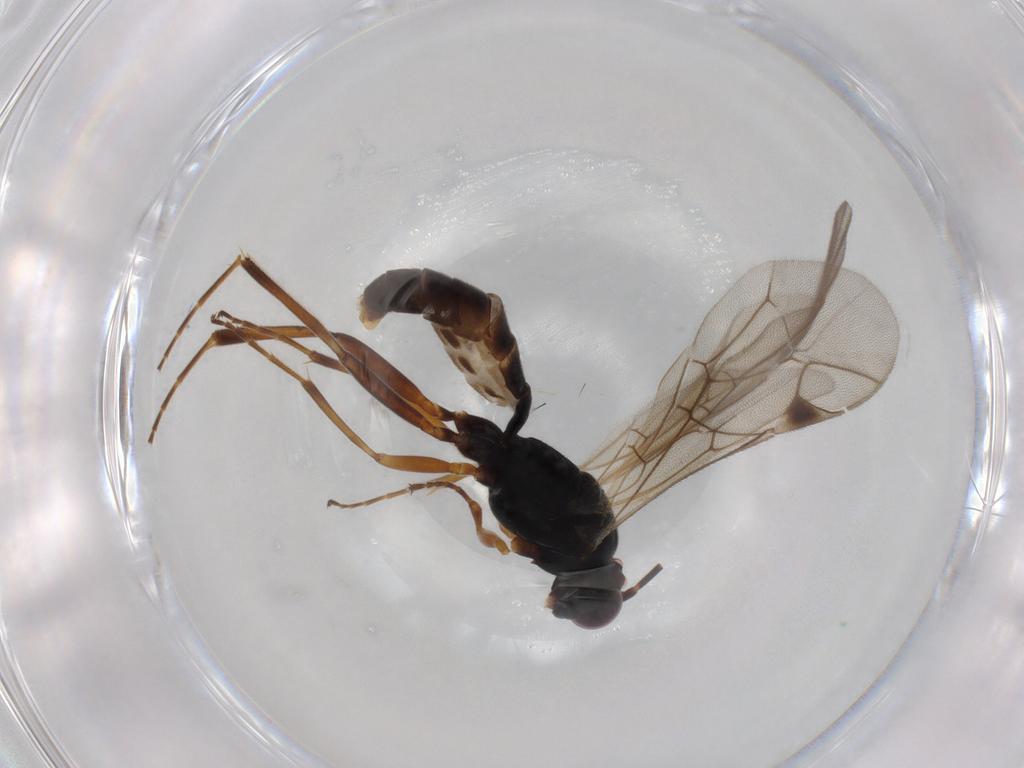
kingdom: Animalia
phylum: Arthropoda
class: Insecta
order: Hymenoptera
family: Ichneumonidae
